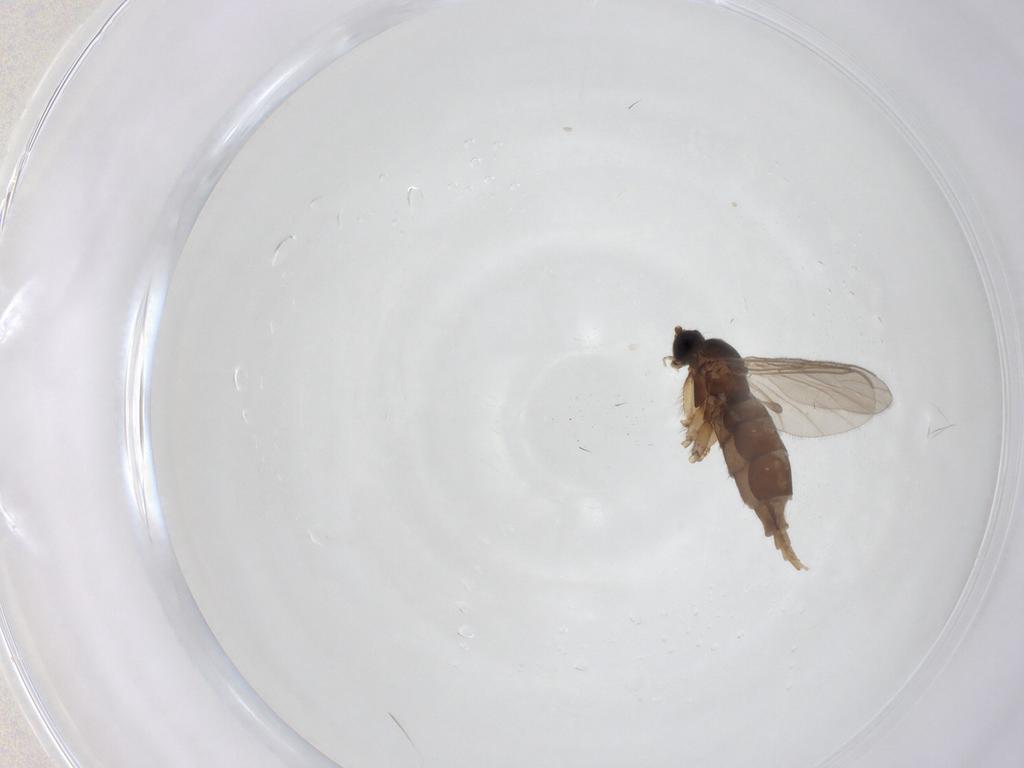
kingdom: Animalia
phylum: Arthropoda
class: Insecta
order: Diptera
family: Sciaridae
